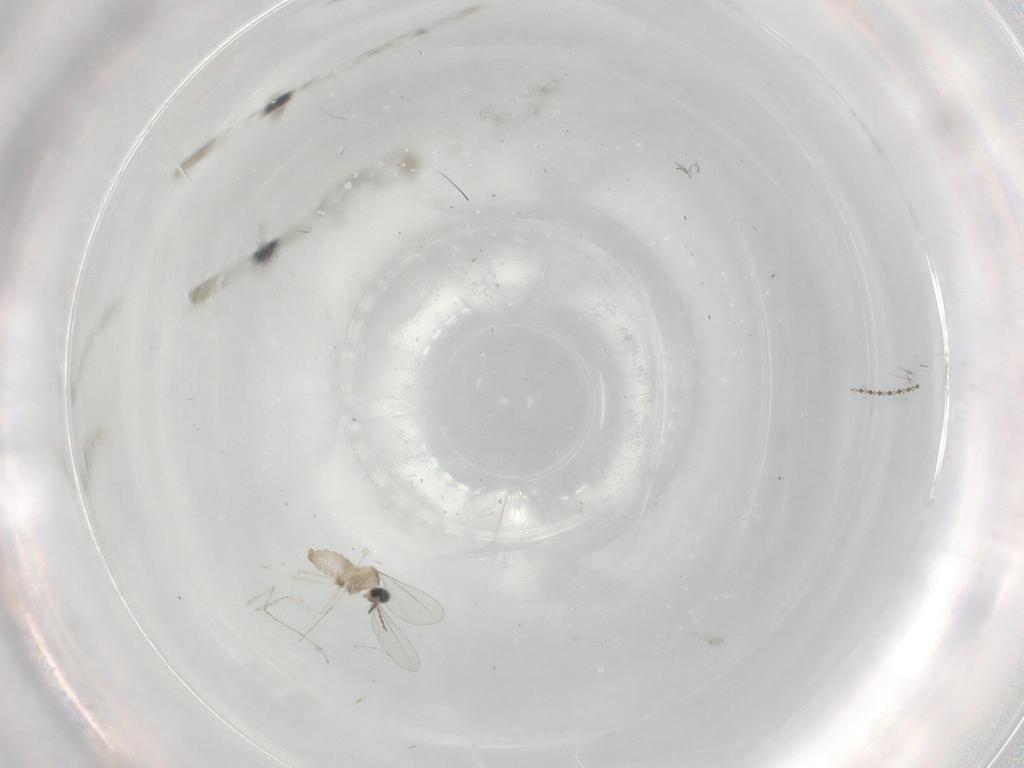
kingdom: Animalia
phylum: Arthropoda
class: Insecta
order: Diptera
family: Cecidomyiidae
